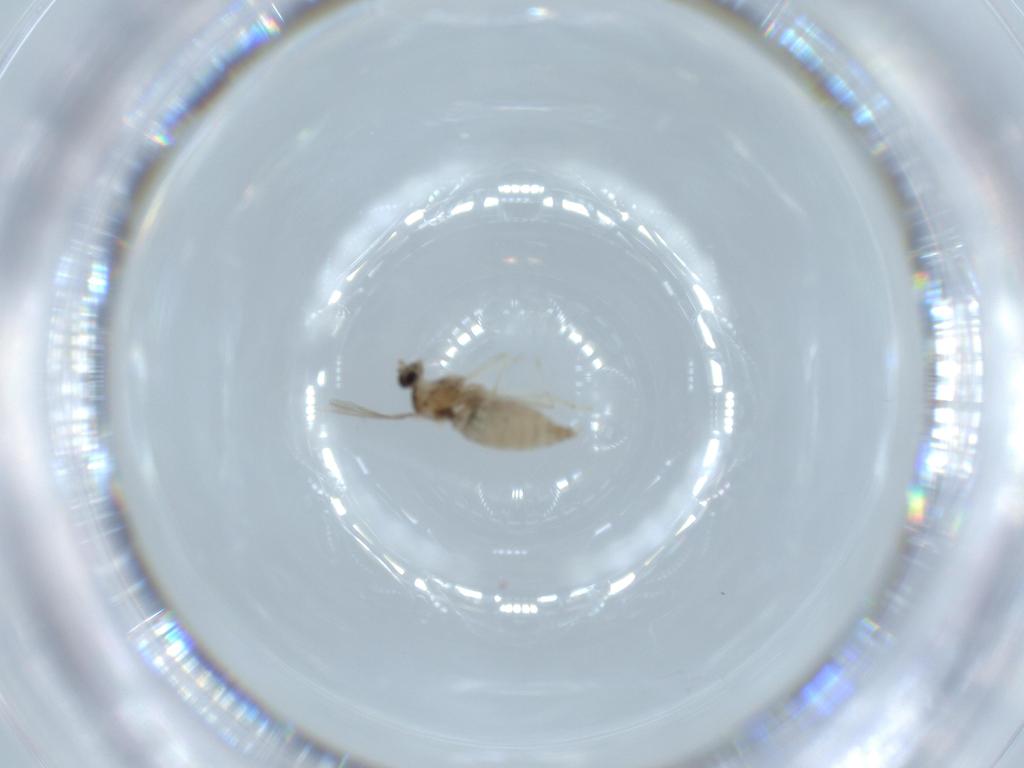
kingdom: Animalia
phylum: Arthropoda
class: Insecta
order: Diptera
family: Cecidomyiidae
